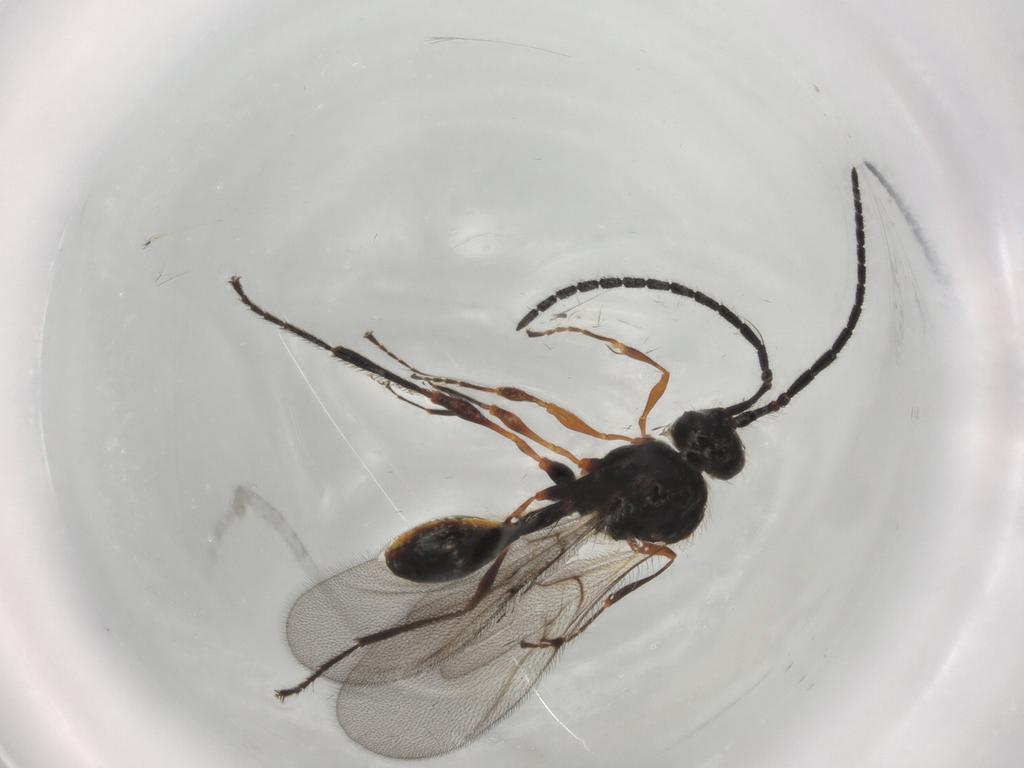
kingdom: Animalia
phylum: Arthropoda
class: Insecta
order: Hymenoptera
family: Diapriidae
